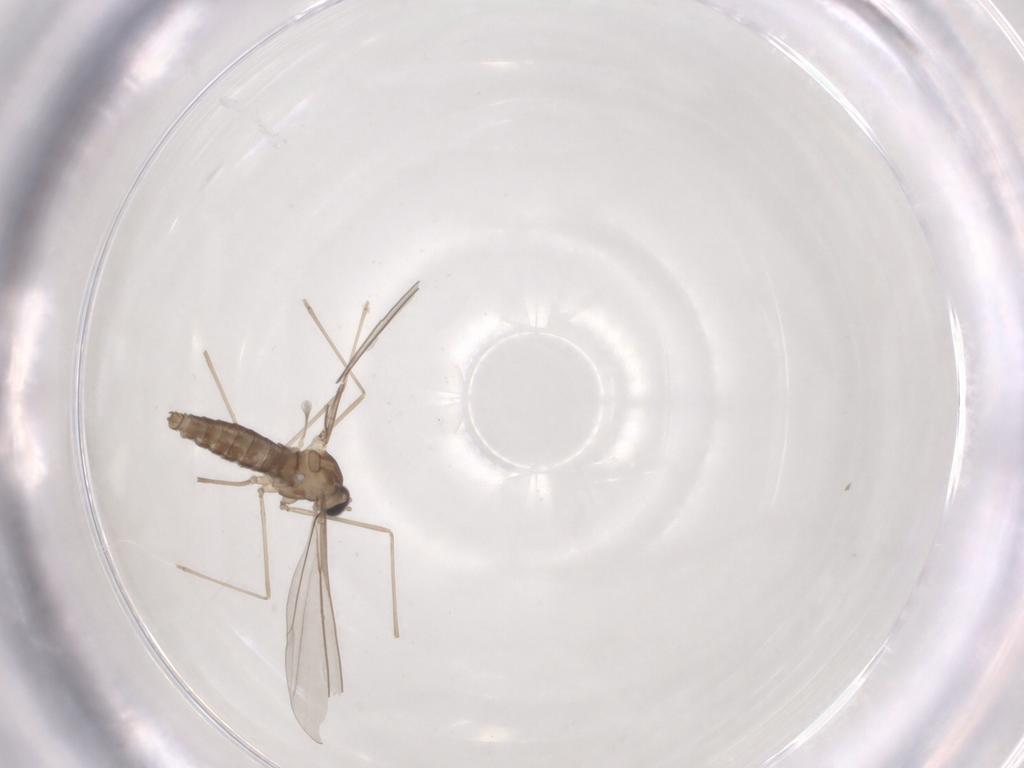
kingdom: Animalia
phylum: Arthropoda
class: Insecta
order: Diptera
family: Cecidomyiidae
